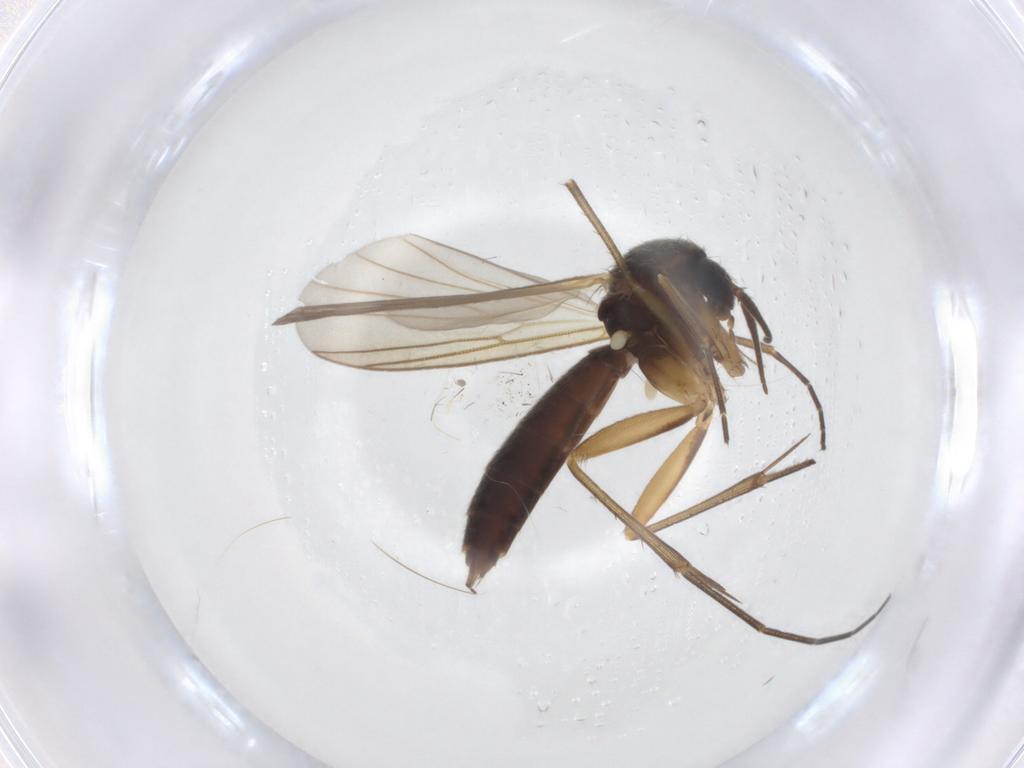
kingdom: Animalia
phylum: Arthropoda
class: Insecta
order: Diptera
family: Mycetophilidae
